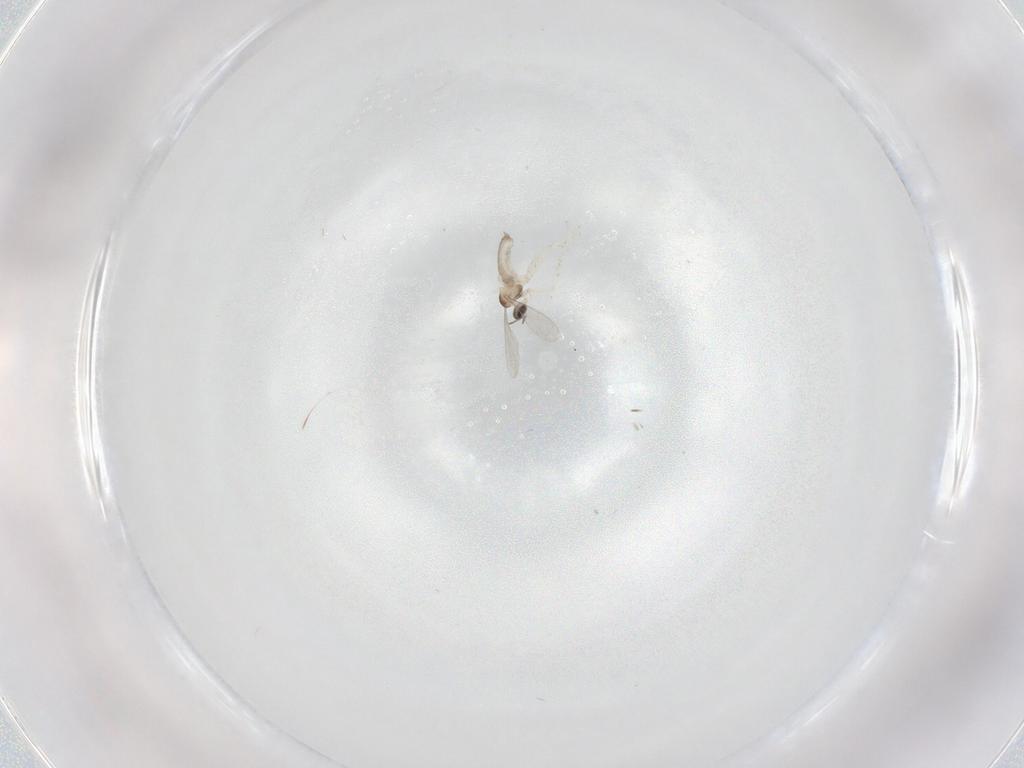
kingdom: Animalia
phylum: Arthropoda
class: Insecta
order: Diptera
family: Ceratopogonidae
